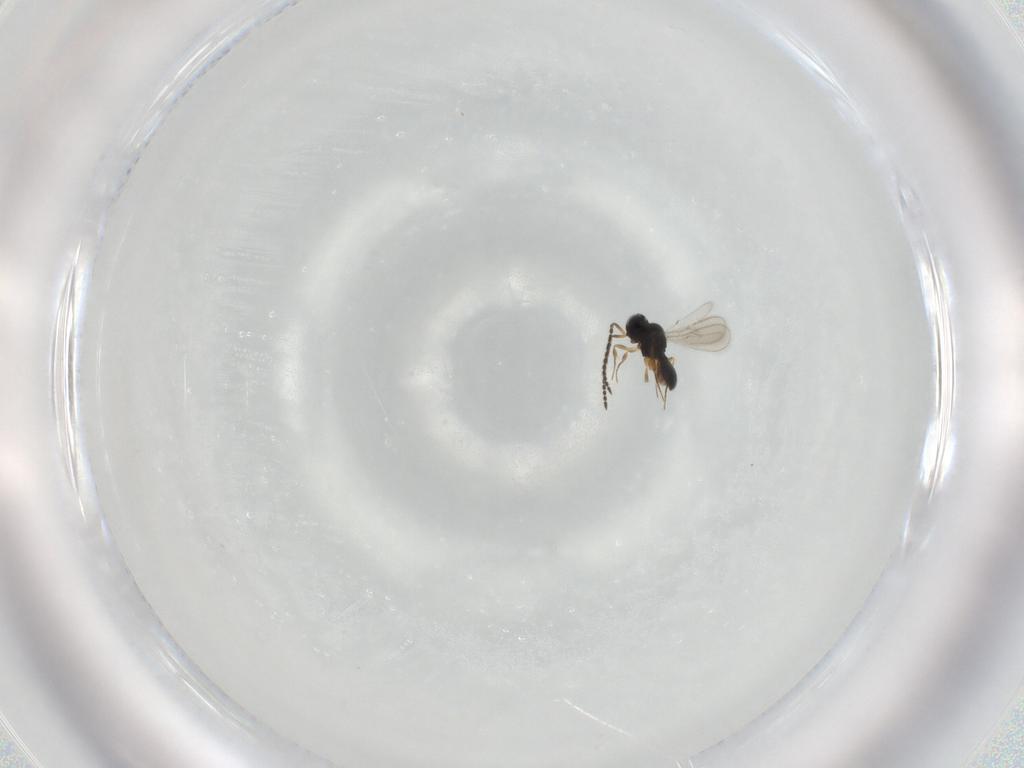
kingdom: Animalia
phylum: Arthropoda
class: Insecta
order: Hymenoptera
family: Scelionidae
